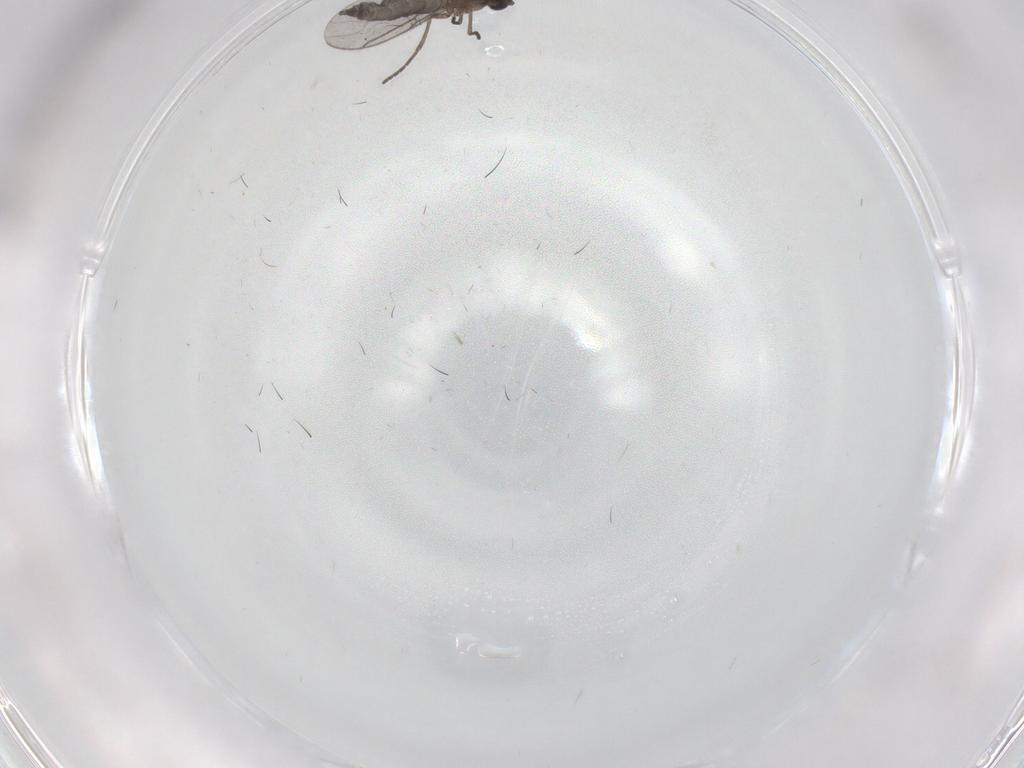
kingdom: Animalia
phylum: Arthropoda
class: Insecta
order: Diptera
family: Sciaridae
